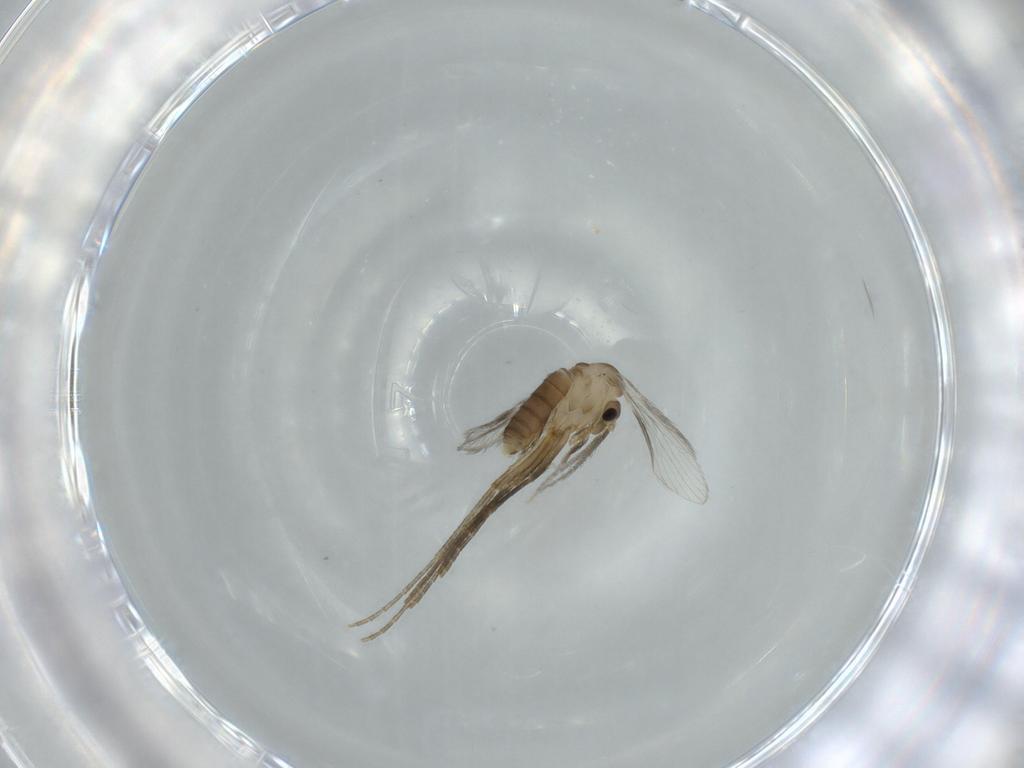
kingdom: Animalia
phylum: Arthropoda
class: Insecta
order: Diptera
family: Psychodidae
